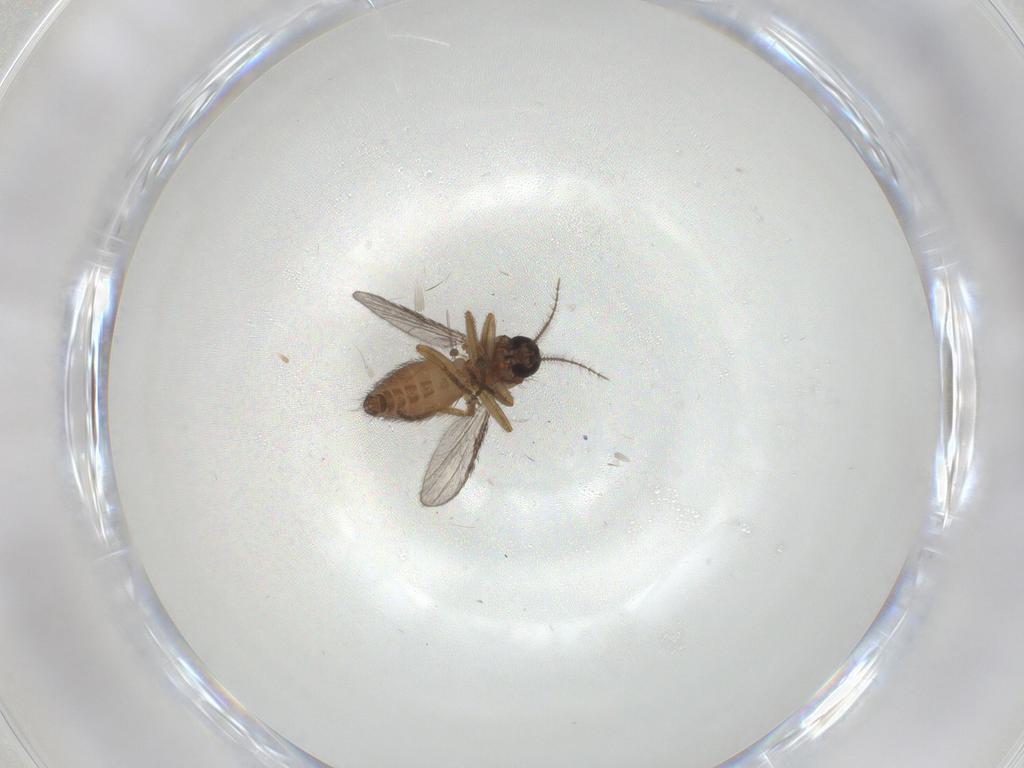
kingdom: Animalia
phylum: Arthropoda
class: Insecta
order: Diptera
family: Ceratopogonidae
